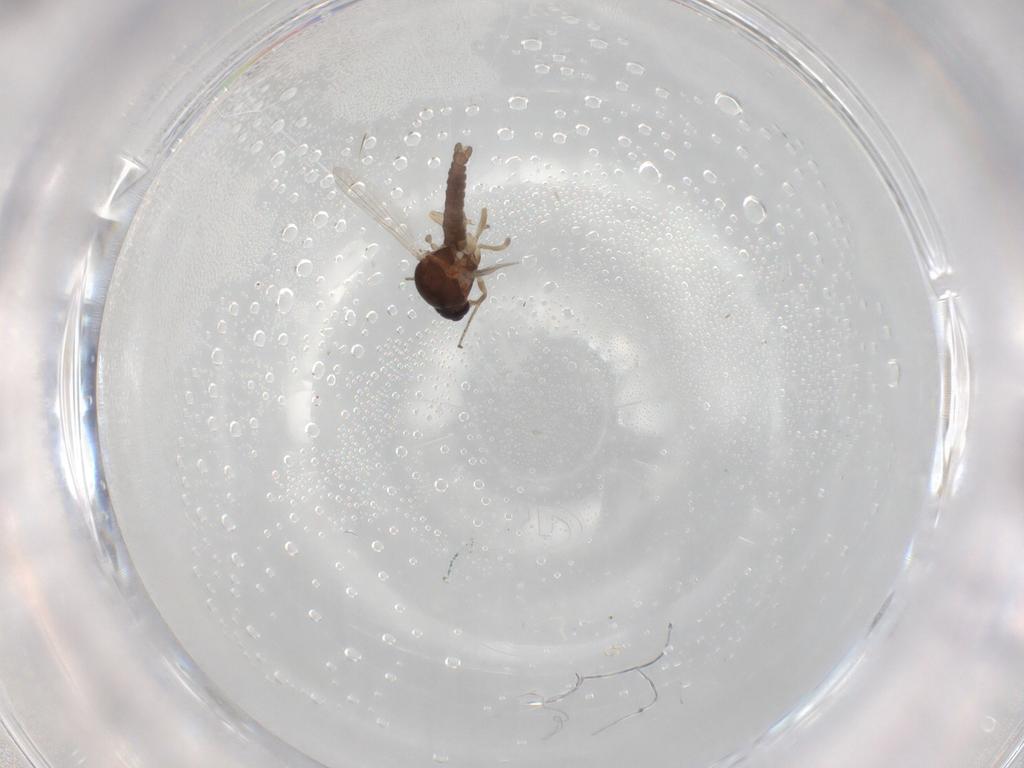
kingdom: Animalia
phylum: Arthropoda
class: Insecta
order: Diptera
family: Ceratopogonidae
